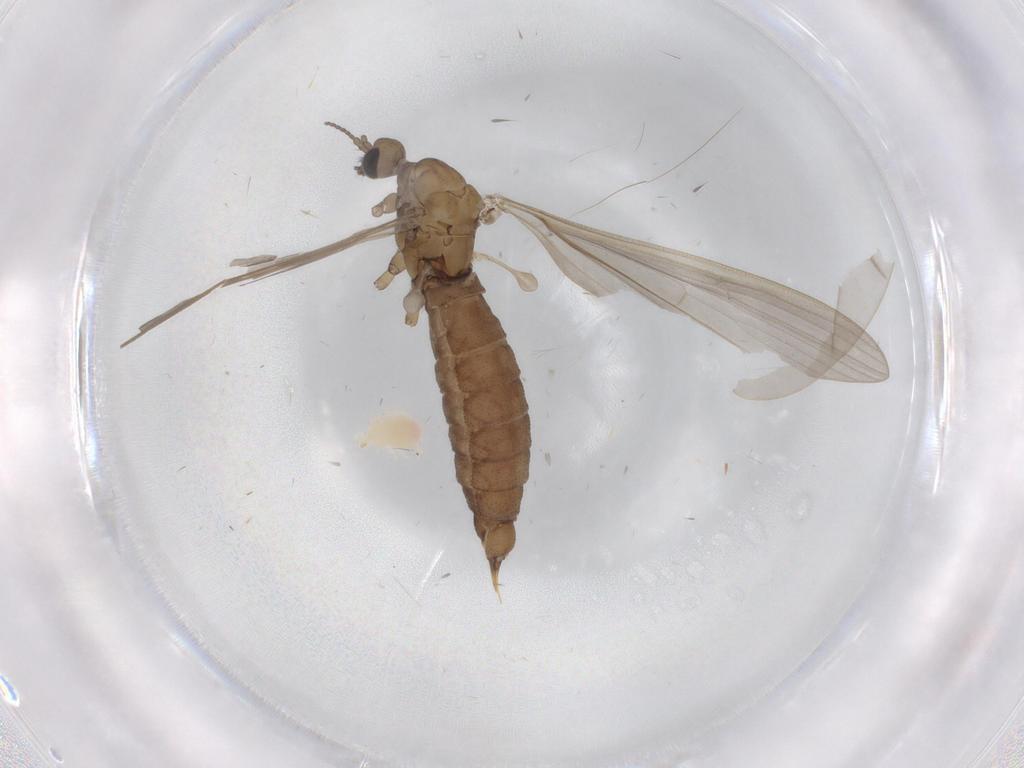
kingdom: Animalia
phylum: Arthropoda
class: Insecta
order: Diptera
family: Limoniidae
